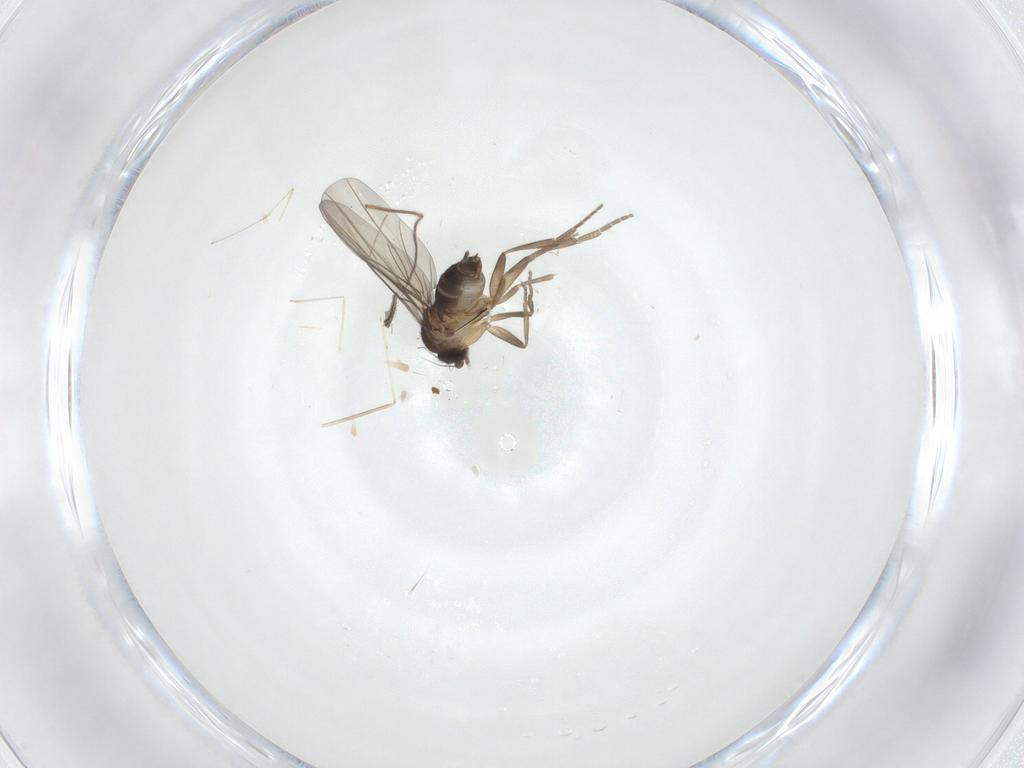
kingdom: Animalia
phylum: Arthropoda
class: Insecta
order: Diptera
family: Phoridae
